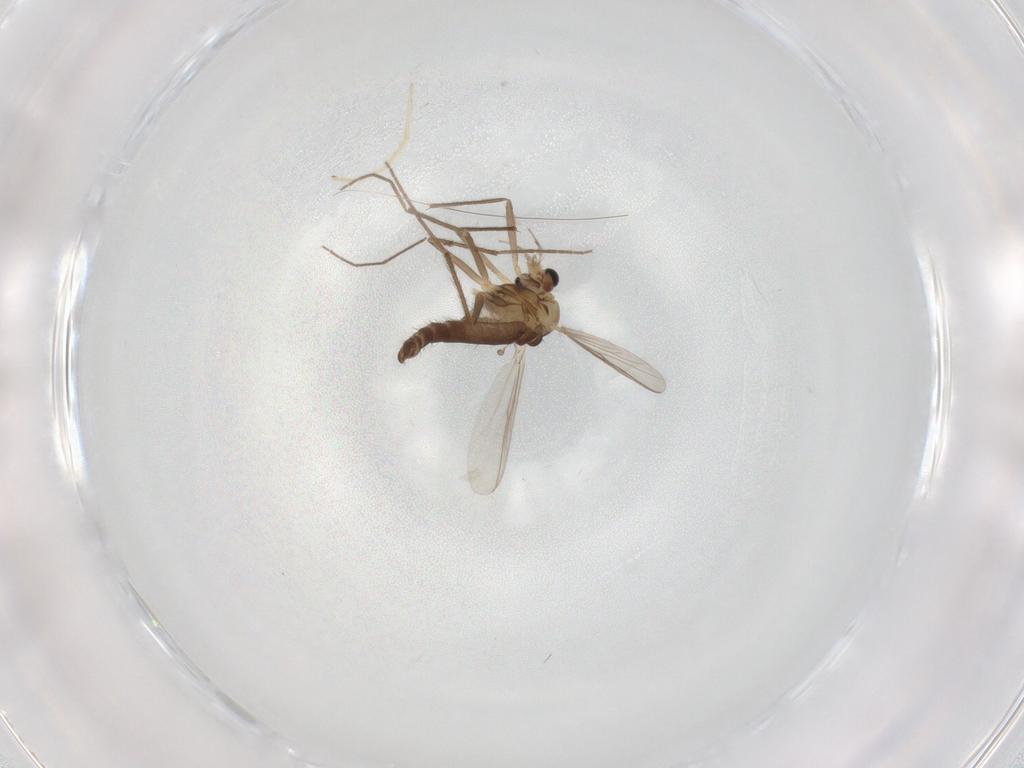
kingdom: Animalia
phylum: Arthropoda
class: Insecta
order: Diptera
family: Chironomidae
